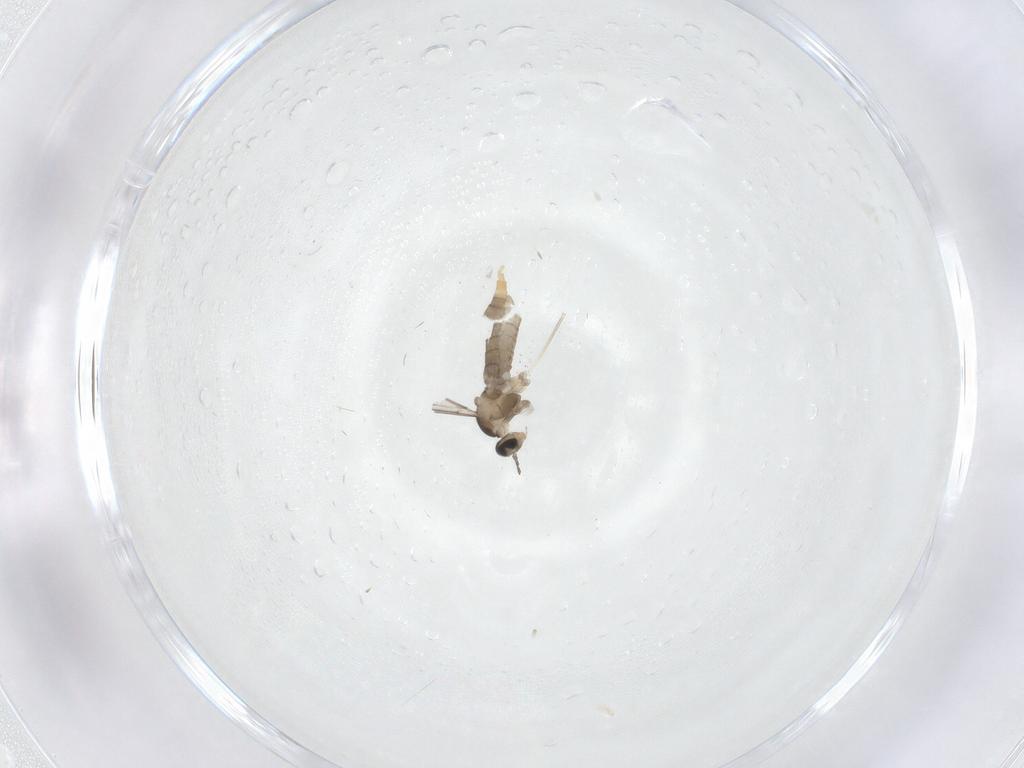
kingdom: Animalia
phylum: Arthropoda
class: Insecta
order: Diptera
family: Cecidomyiidae
